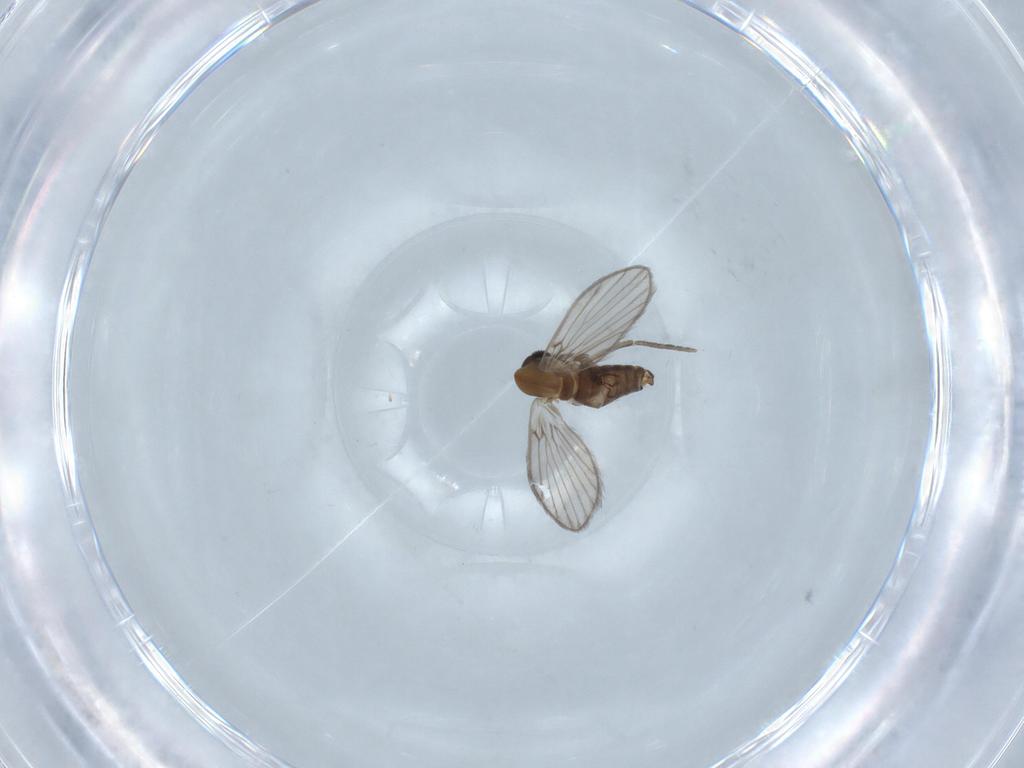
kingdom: Animalia
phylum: Arthropoda
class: Insecta
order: Diptera
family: Psychodidae
